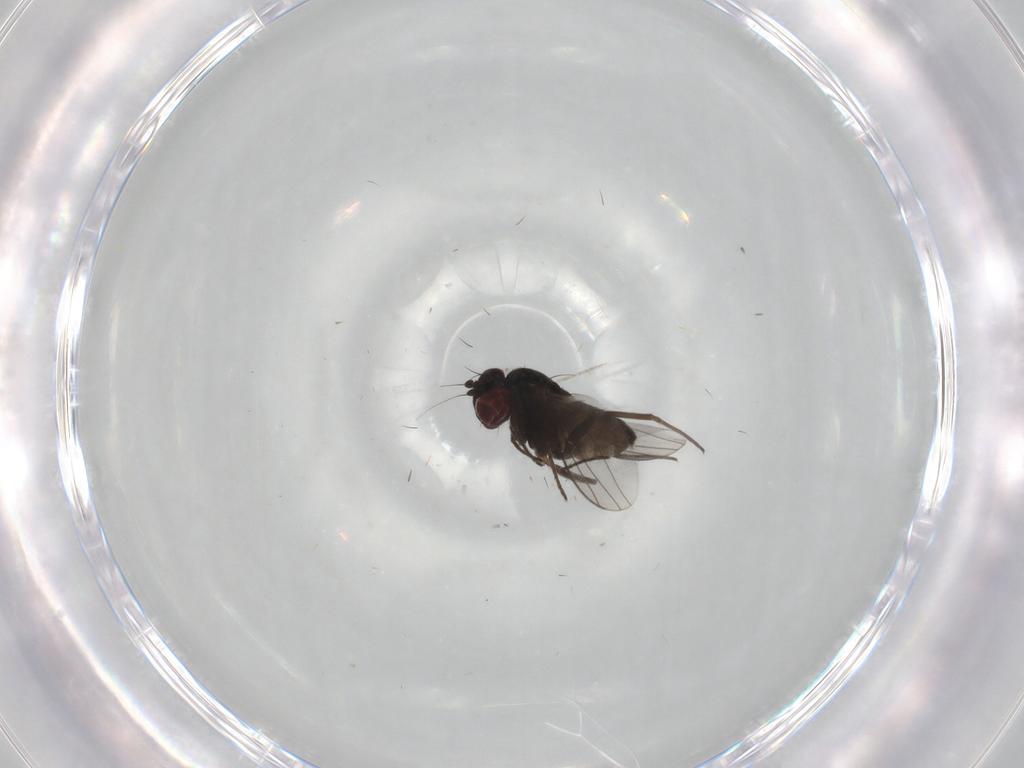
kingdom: Animalia
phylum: Arthropoda
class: Insecta
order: Diptera
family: Dolichopodidae
